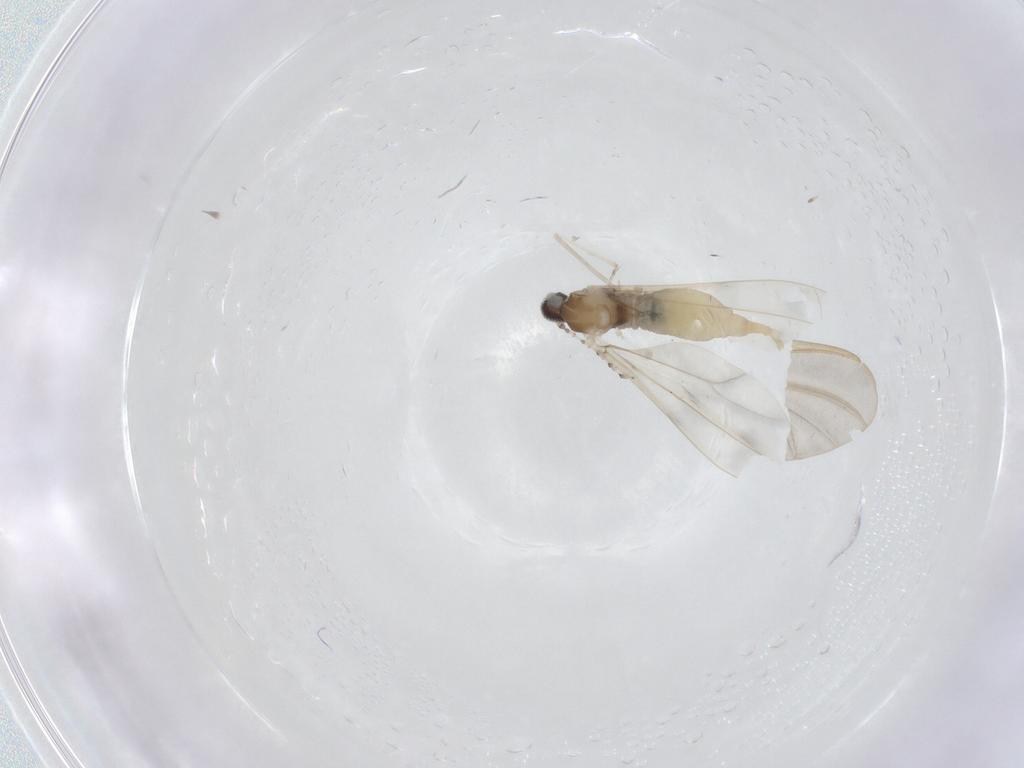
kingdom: Animalia
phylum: Arthropoda
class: Insecta
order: Diptera
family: Cecidomyiidae
